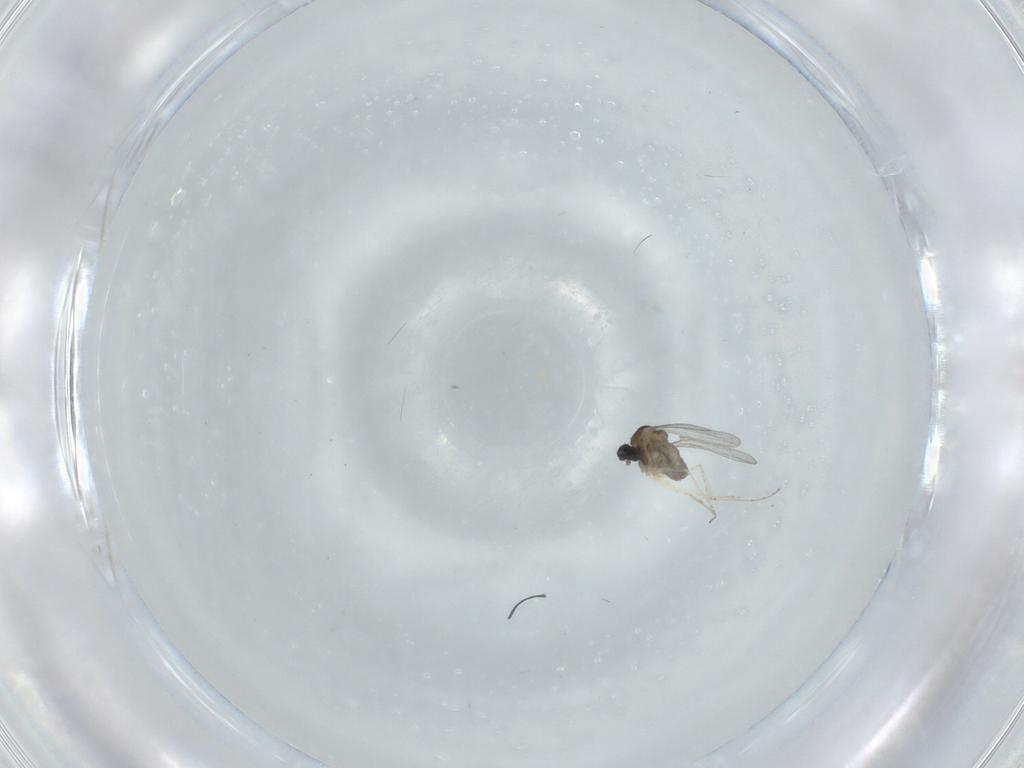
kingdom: Animalia
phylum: Arthropoda
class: Insecta
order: Diptera
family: Cecidomyiidae
